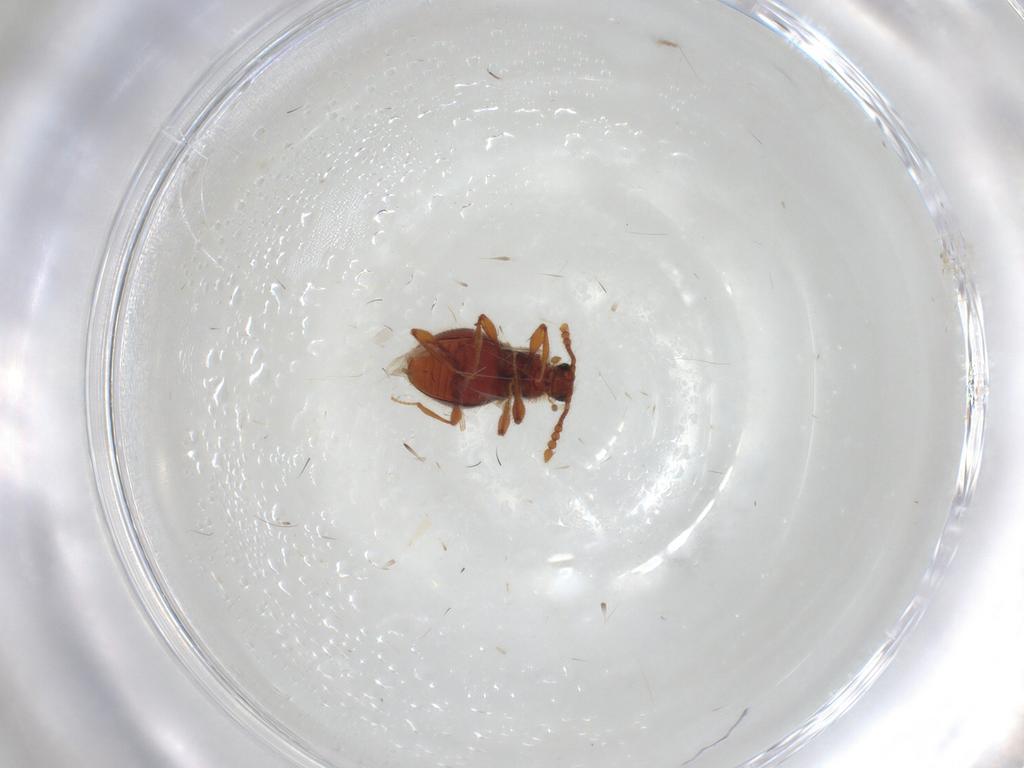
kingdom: Animalia
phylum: Arthropoda
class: Insecta
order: Coleoptera
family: Staphylinidae
